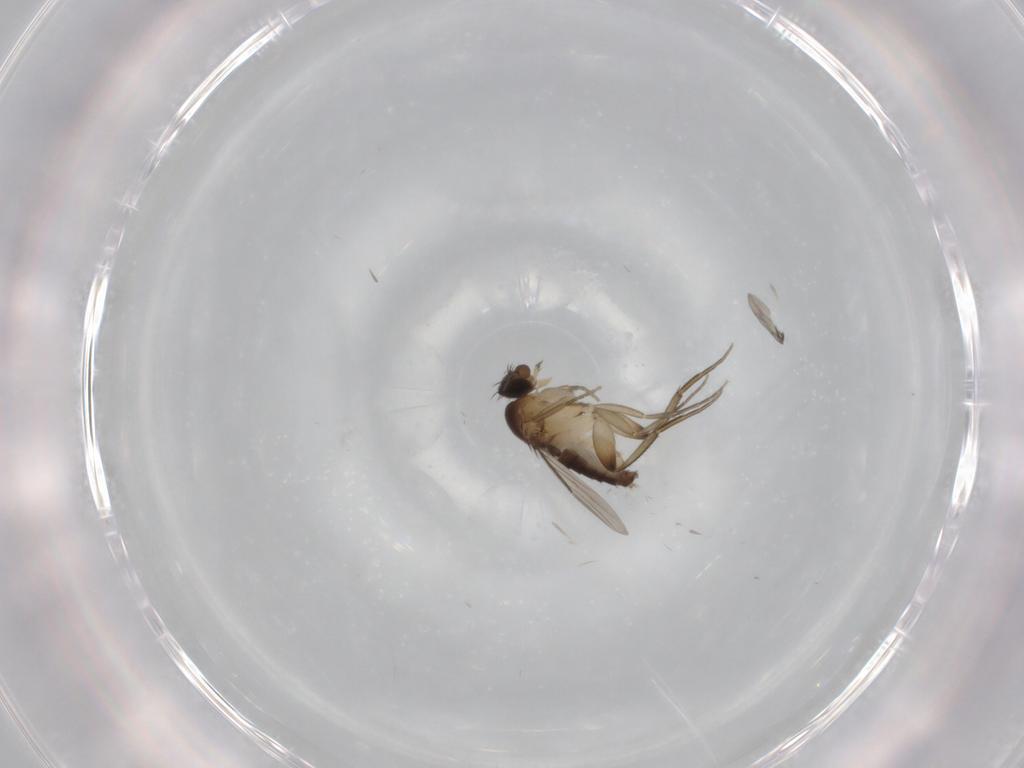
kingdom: Animalia
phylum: Arthropoda
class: Insecta
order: Diptera
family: Phoridae
